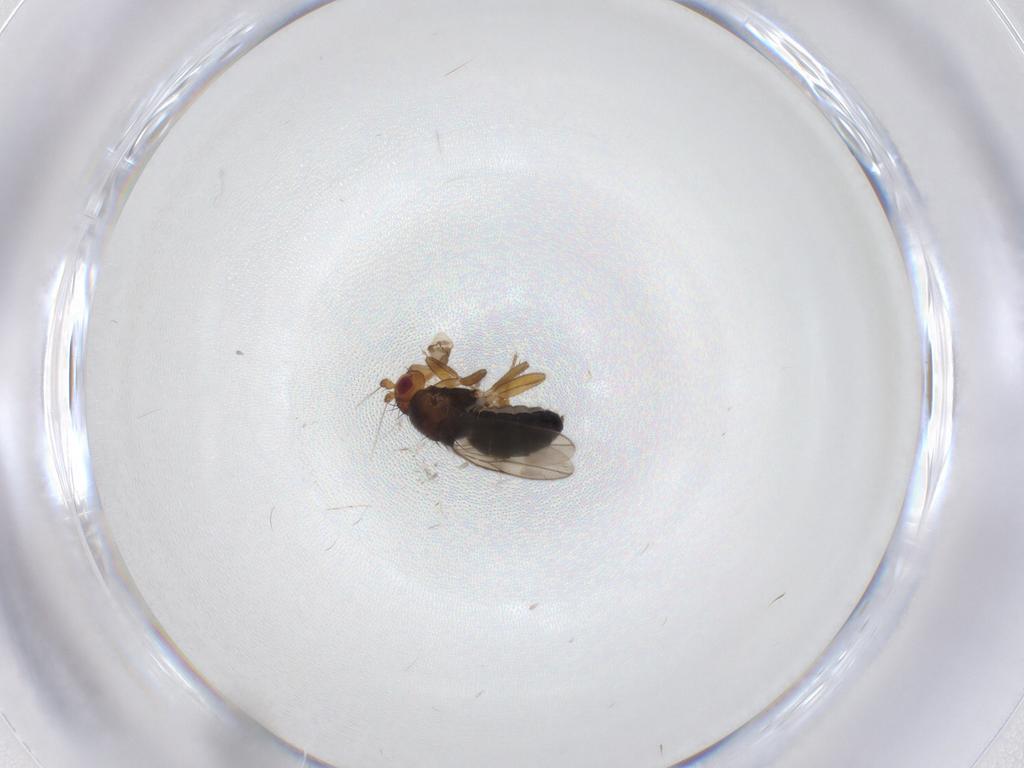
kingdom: Animalia
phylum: Arthropoda
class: Insecta
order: Diptera
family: Sphaeroceridae
